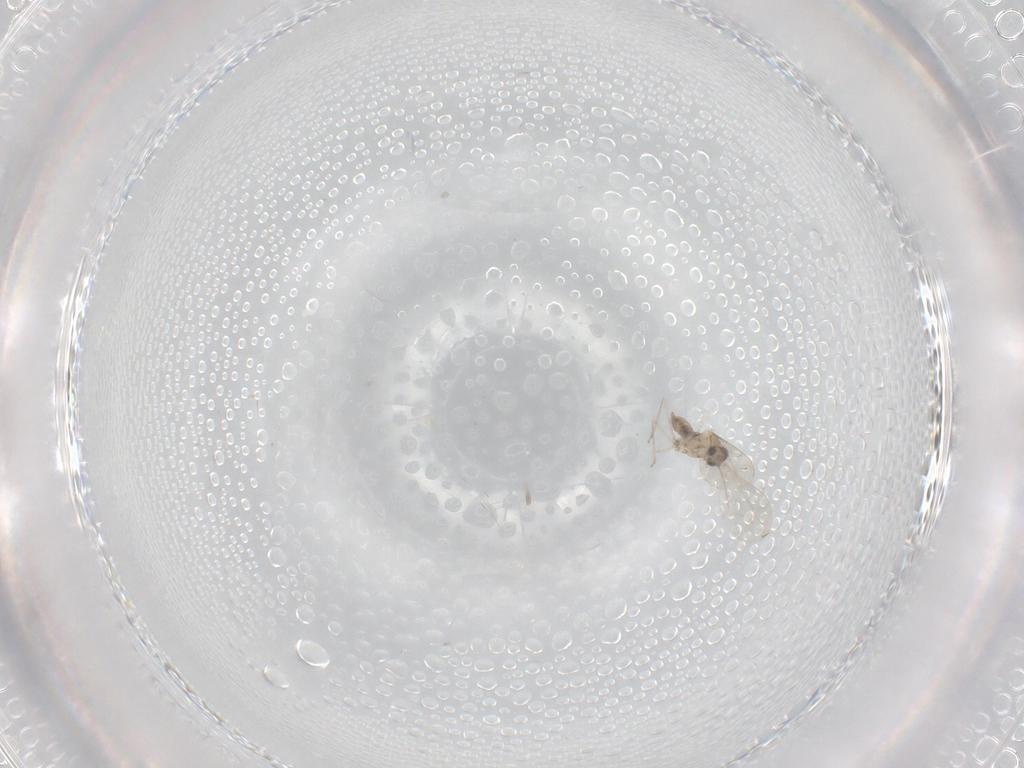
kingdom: Animalia
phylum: Arthropoda
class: Insecta
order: Diptera
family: Cecidomyiidae
